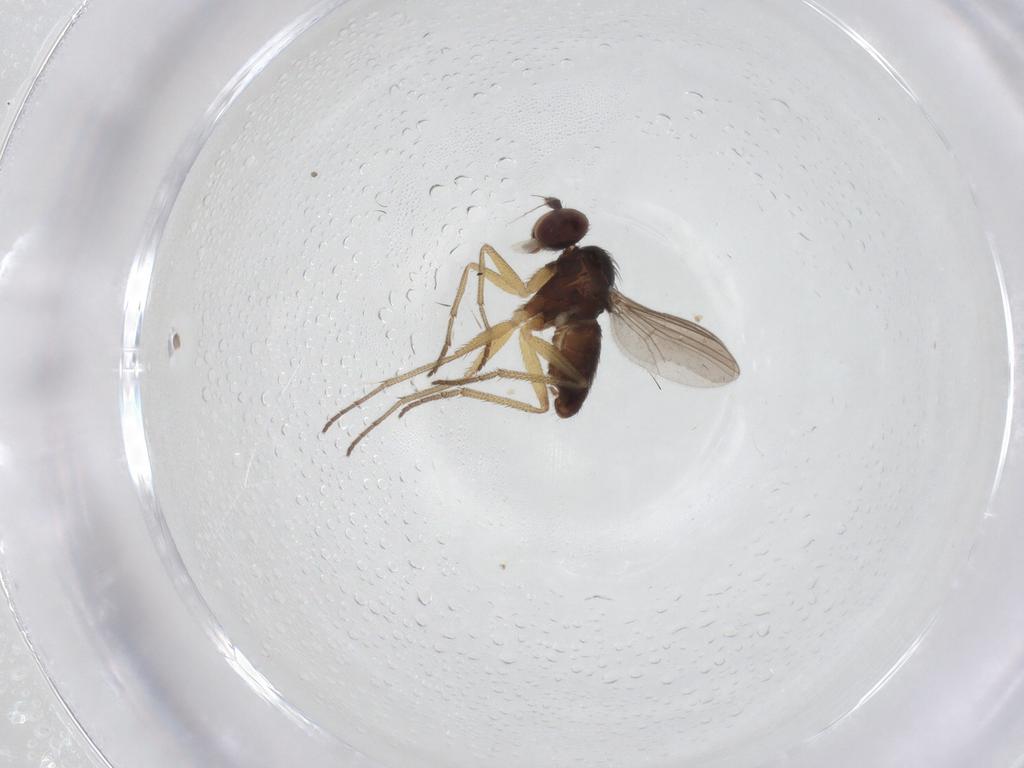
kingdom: Animalia
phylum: Arthropoda
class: Insecta
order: Diptera
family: Dolichopodidae
